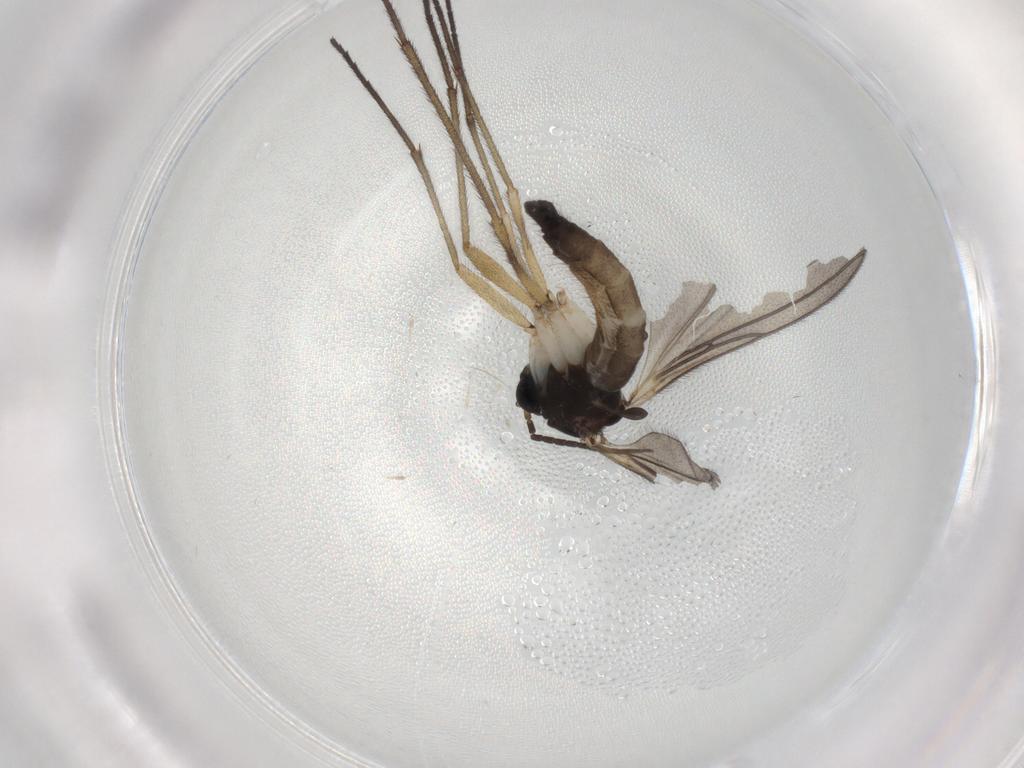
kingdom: Animalia
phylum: Arthropoda
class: Insecta
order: Diptera
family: Sciaridae
